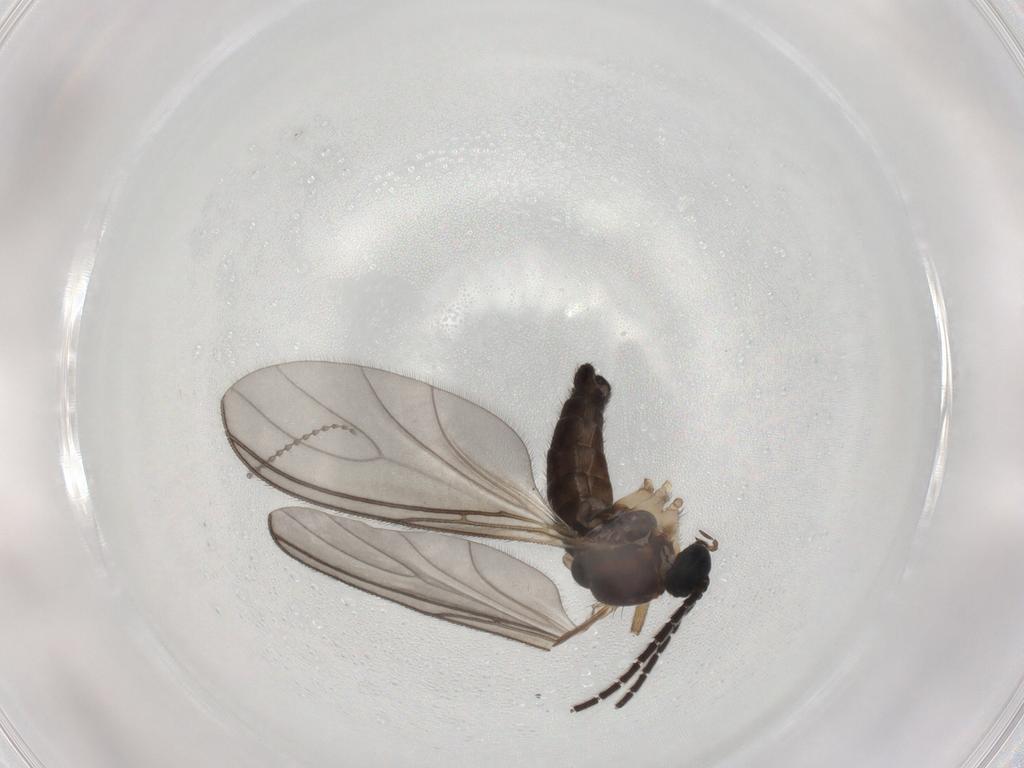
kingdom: Animalia
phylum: Arthropoda
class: Insecta
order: Diptera
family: Sciaridae
